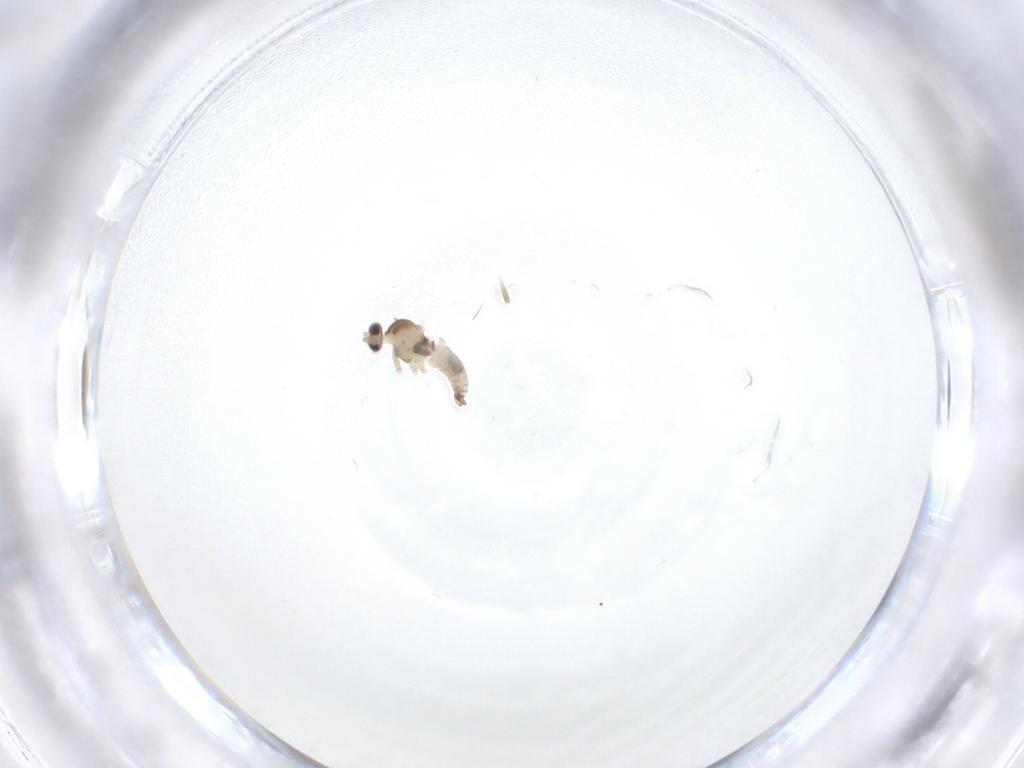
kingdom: Animalia
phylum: Arthropoda
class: Insecta
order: Diptera
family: Cecidomyiidae
